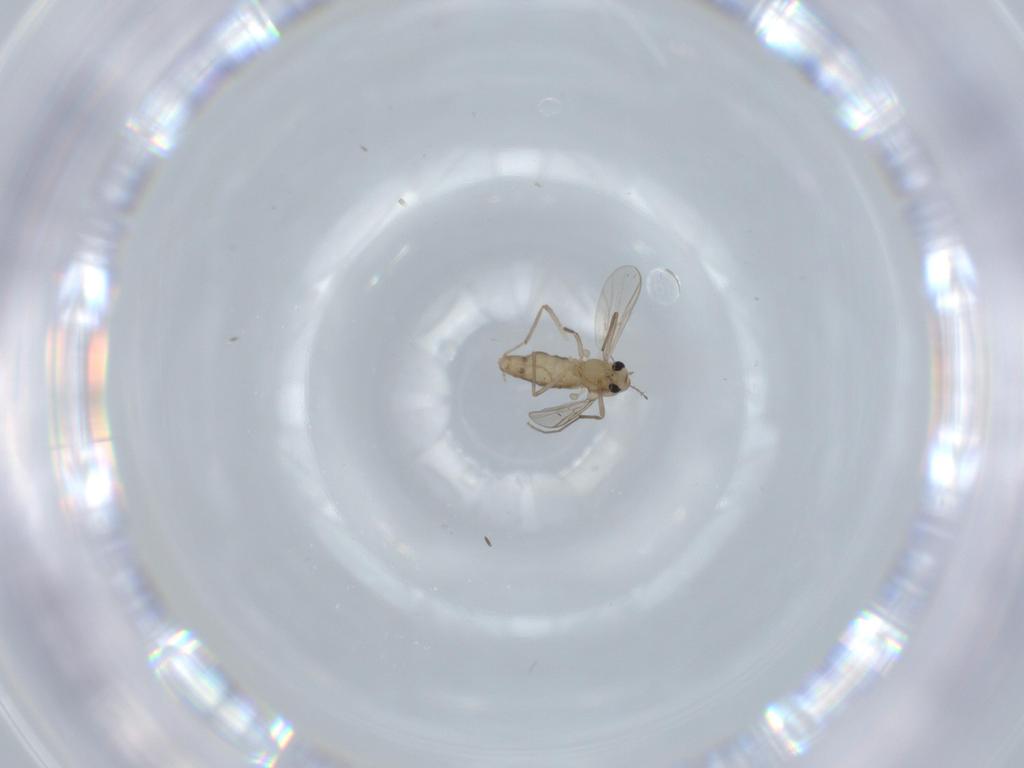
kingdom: Animalia
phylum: Arthropoda
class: Insecta
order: Diptera
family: Chironomidae
